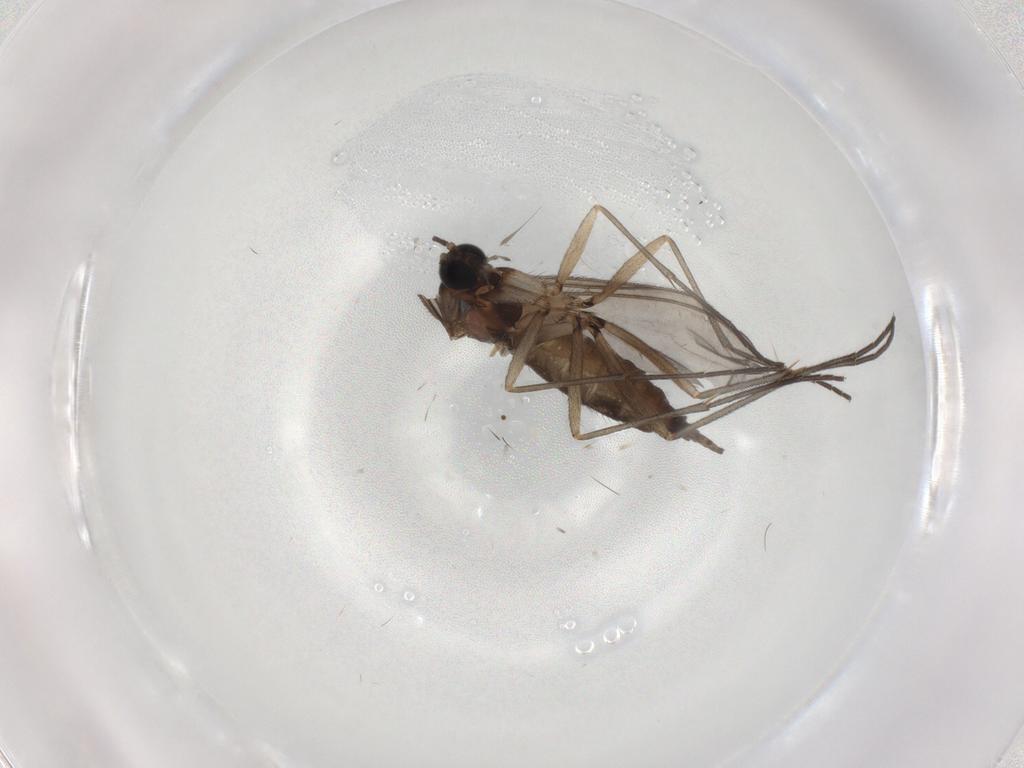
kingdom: Animalia
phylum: Arthropoda
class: Insecta
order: Diptera
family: Sciaridae
